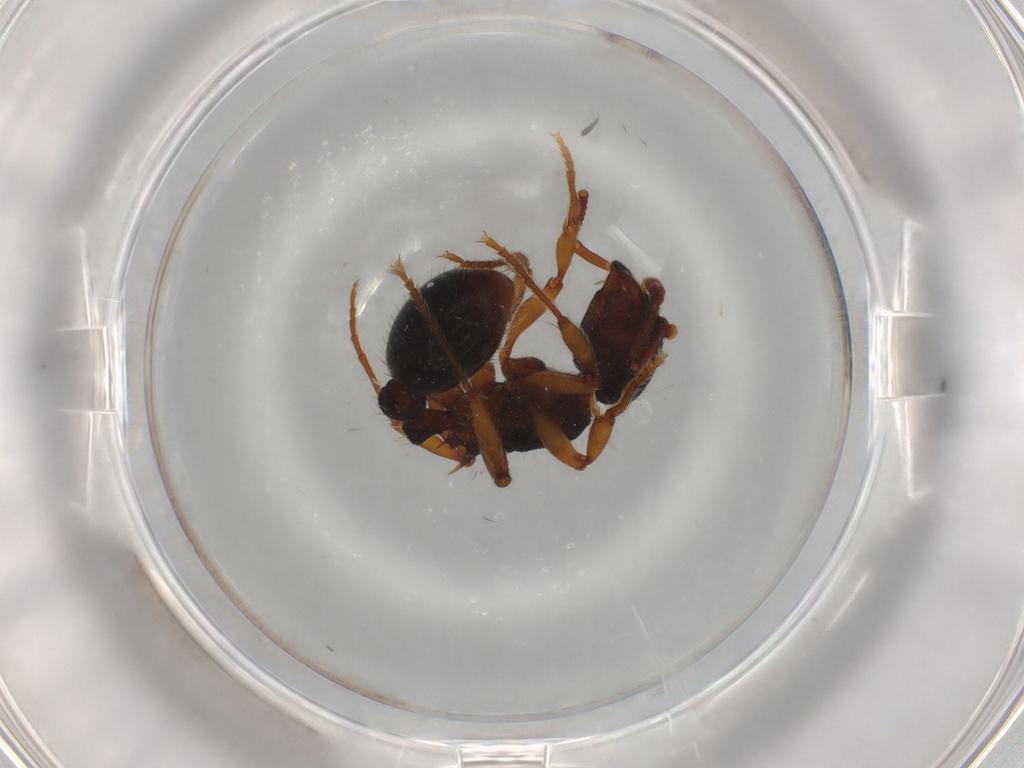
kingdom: Animalia
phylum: Arthropoda
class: Insecta
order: Hymenoptera
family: Formicidae
